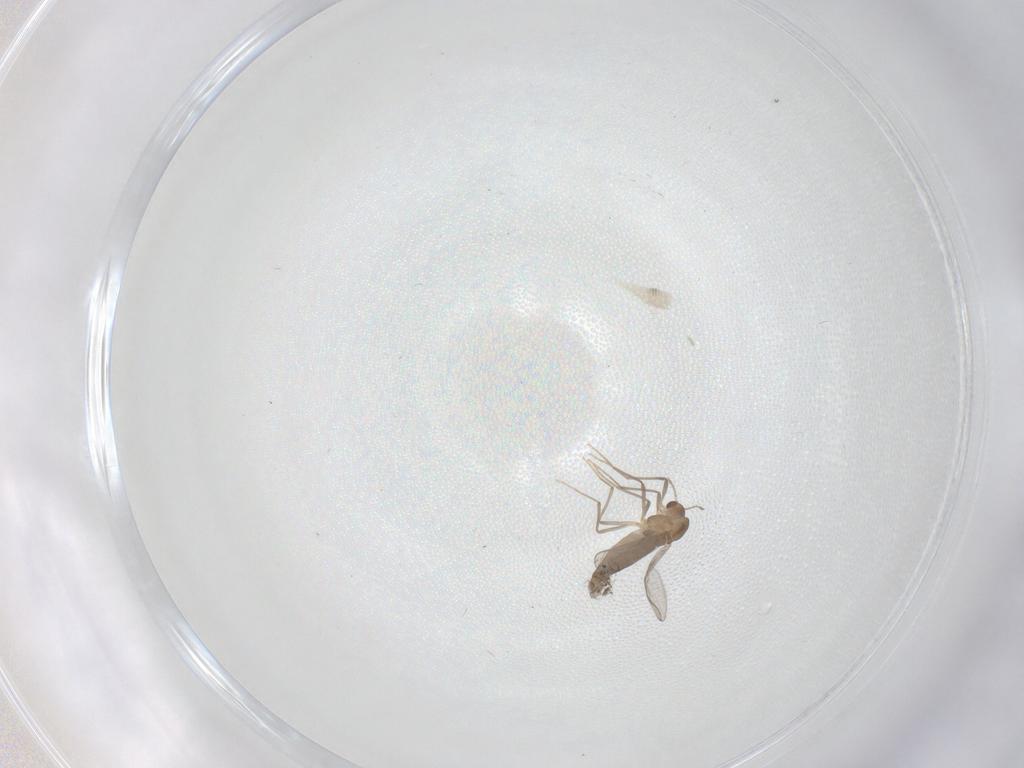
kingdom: Animalia
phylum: Arthropoda
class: Insecta
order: Diptera
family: Chironomidae
